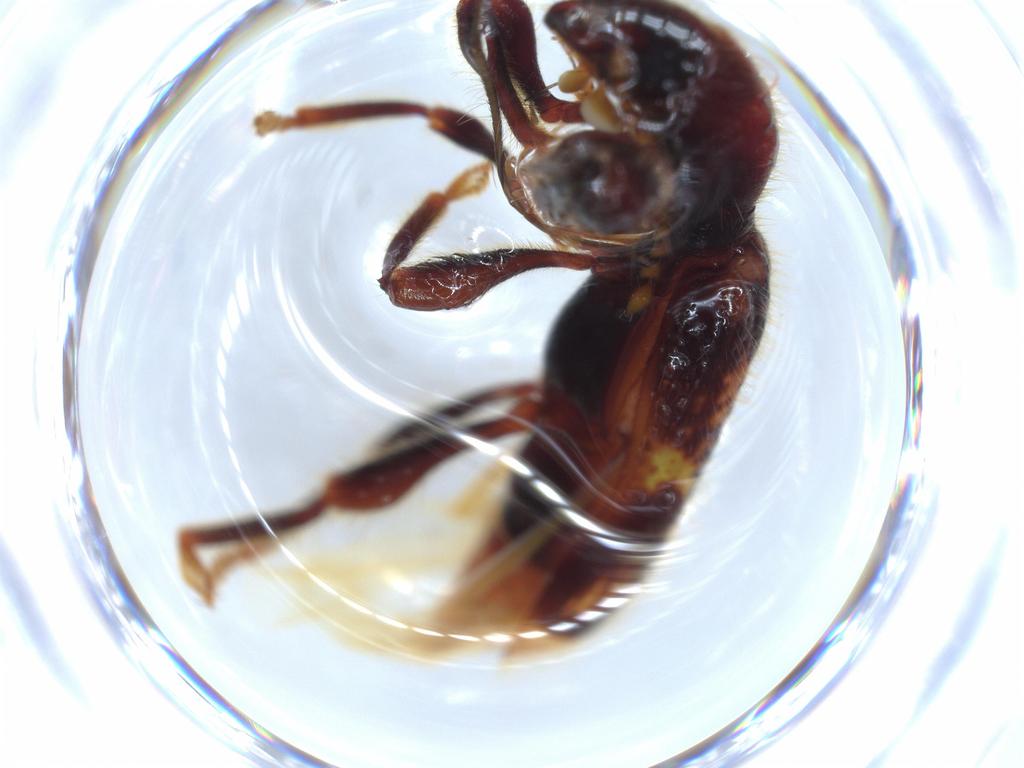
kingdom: Animalia
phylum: Arthropoda
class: Insecta
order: Coleoptera
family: Cleridae
